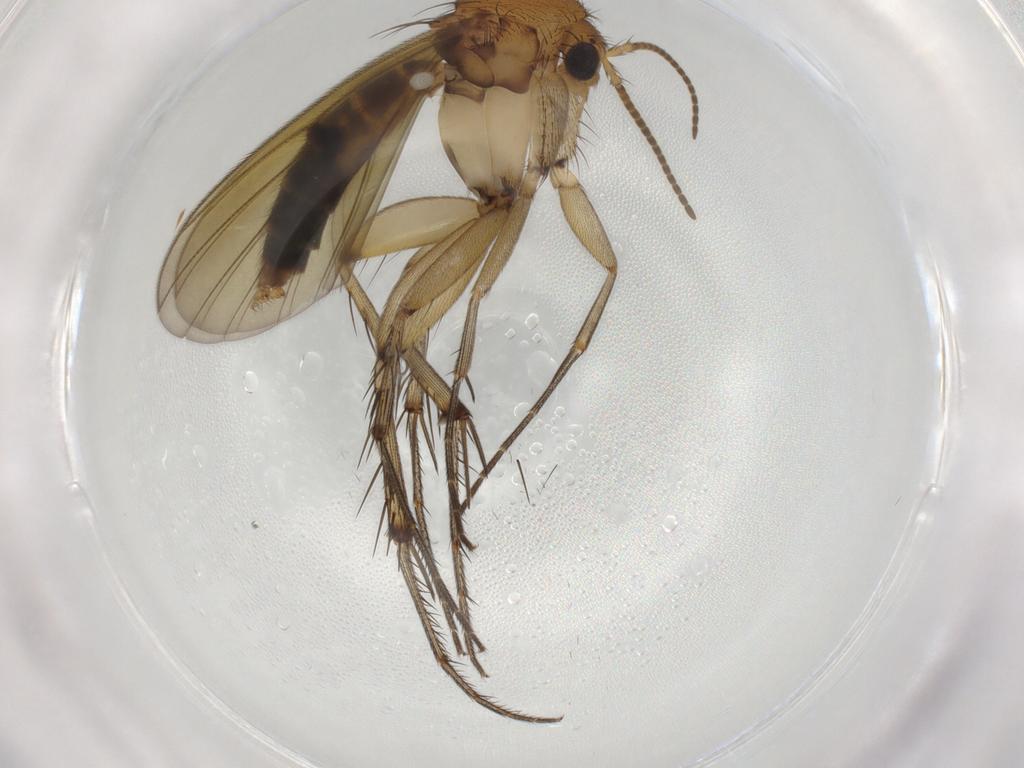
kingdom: Animalia
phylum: Arthropoda
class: Insecta
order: Diptera
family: Mycetophilidae
